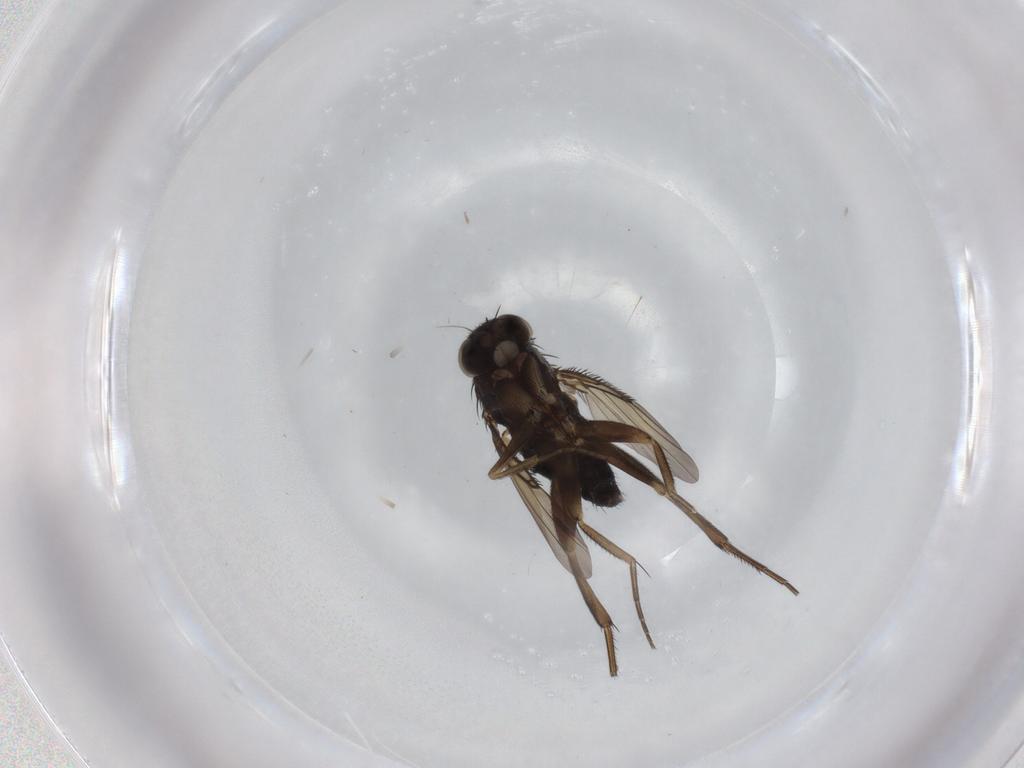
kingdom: Animalia
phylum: Arthropoda
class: Insecta
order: Diptera
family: Phoridae
